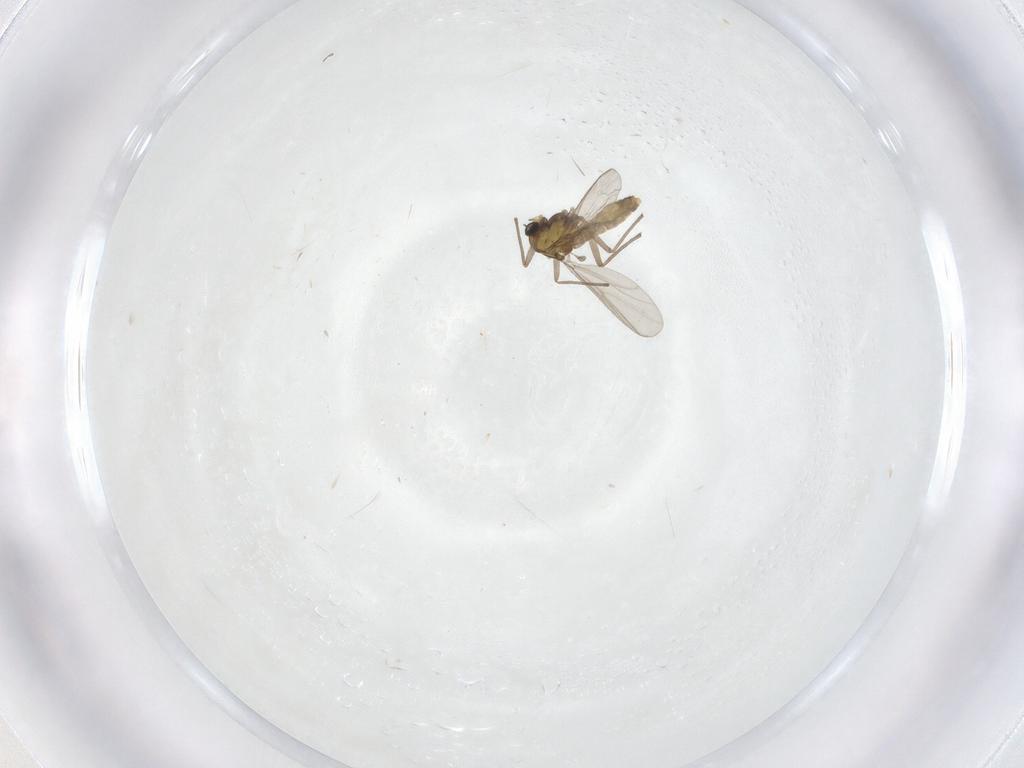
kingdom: Animalia
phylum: Arthropoda
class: Insecta
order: Diptera
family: Chironomidae
